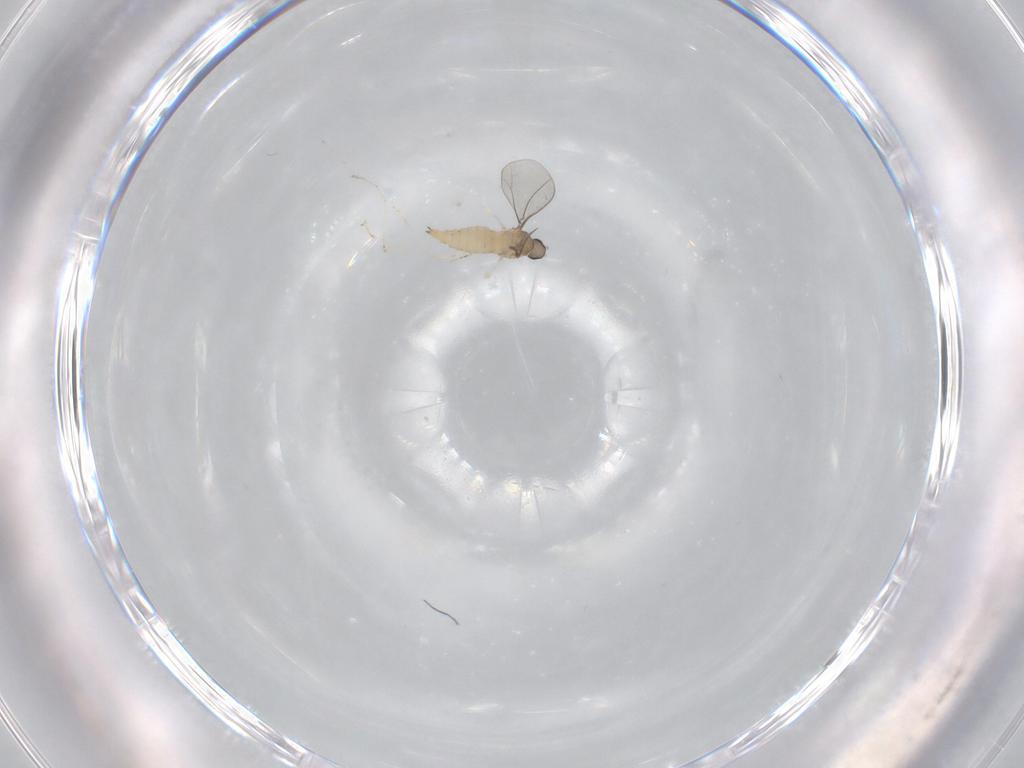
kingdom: Animalia
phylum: Arthropoda
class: Insecta
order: Diptera
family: Cecidomyiidae
